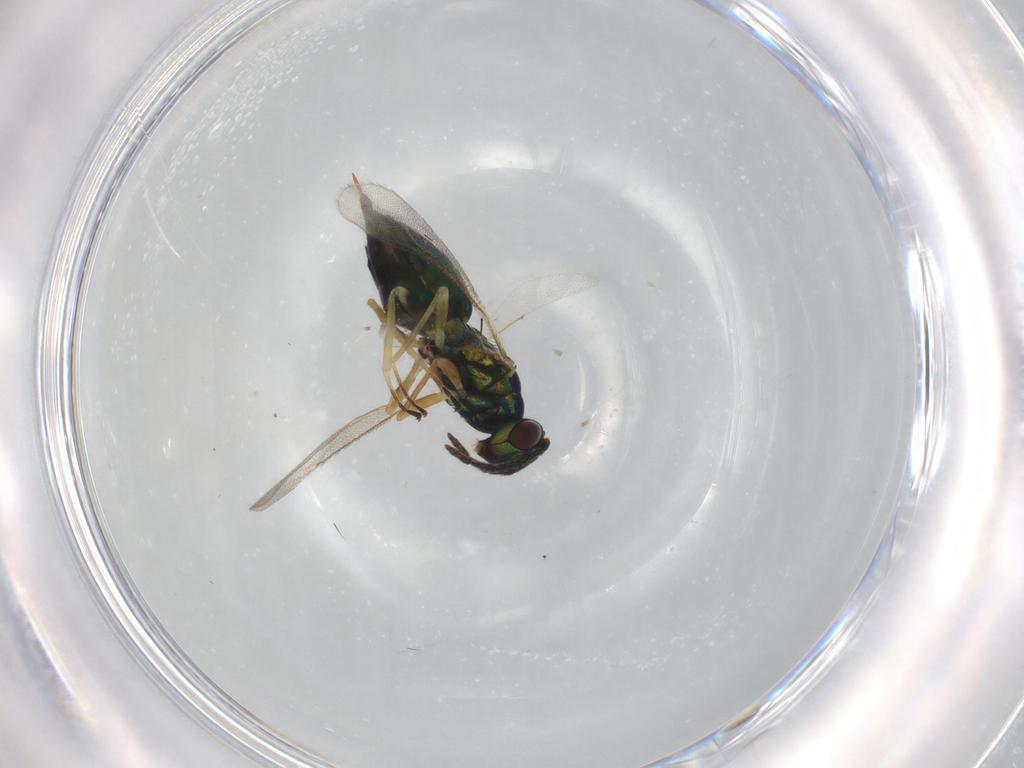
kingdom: Animalia
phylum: Arthropoda
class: Insecta
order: Hymenoptera
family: Eulophidae
